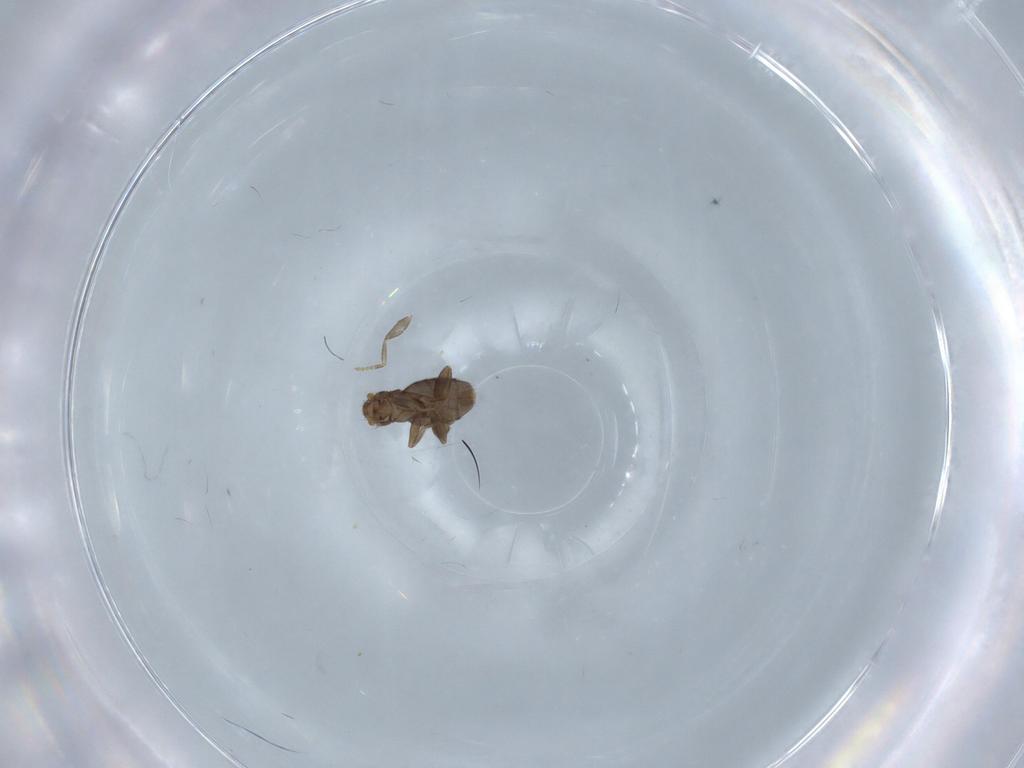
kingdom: Animalia
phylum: Arthropoda
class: Insecta
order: Diptera
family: Phoridae
